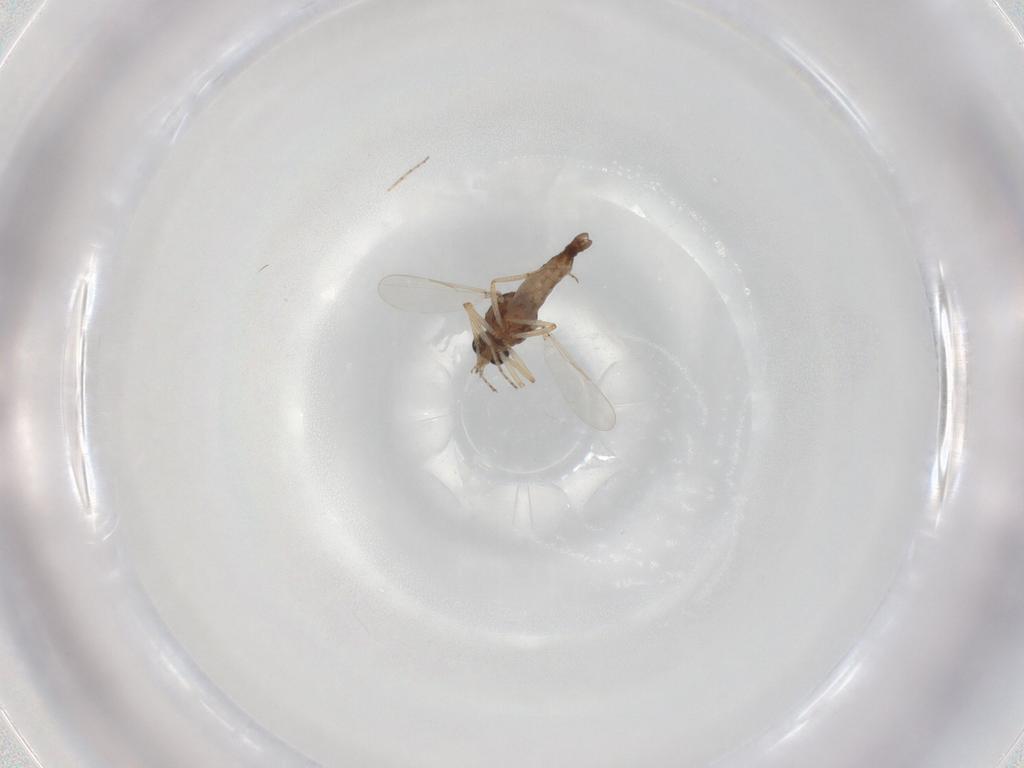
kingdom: Animalia
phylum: Arthropoda
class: Insecta
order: Diptera
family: Ceratopogonidae
